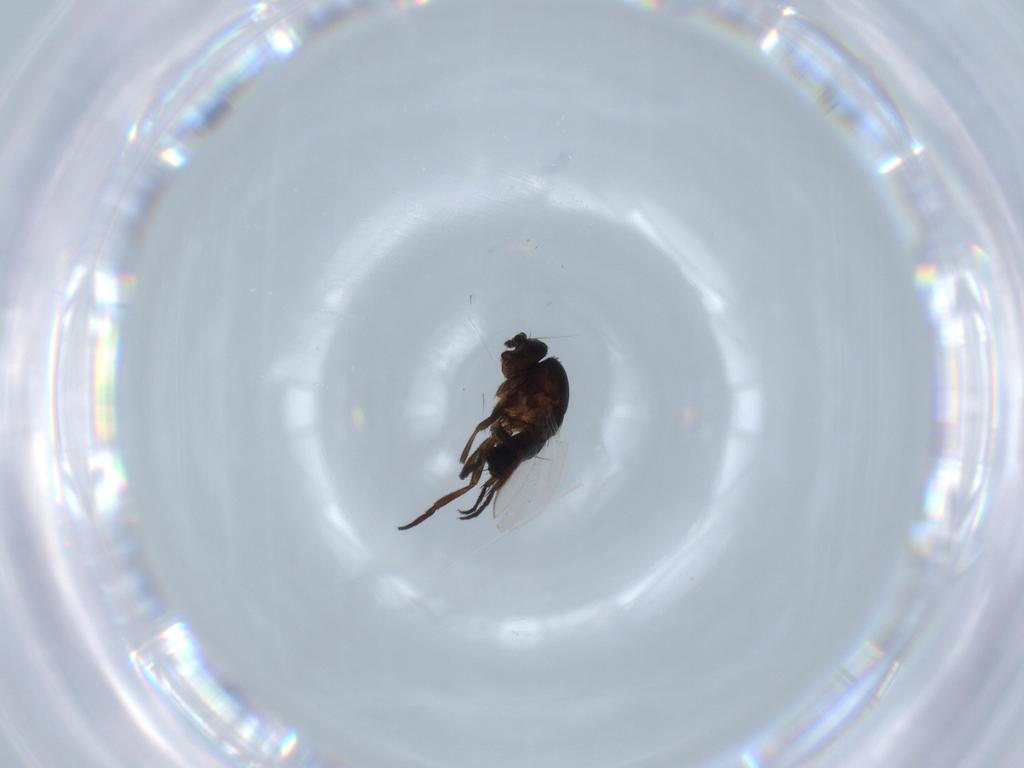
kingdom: Animalia
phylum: Arthropoda
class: Insecta
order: Diptera
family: Sphaeroceridae
